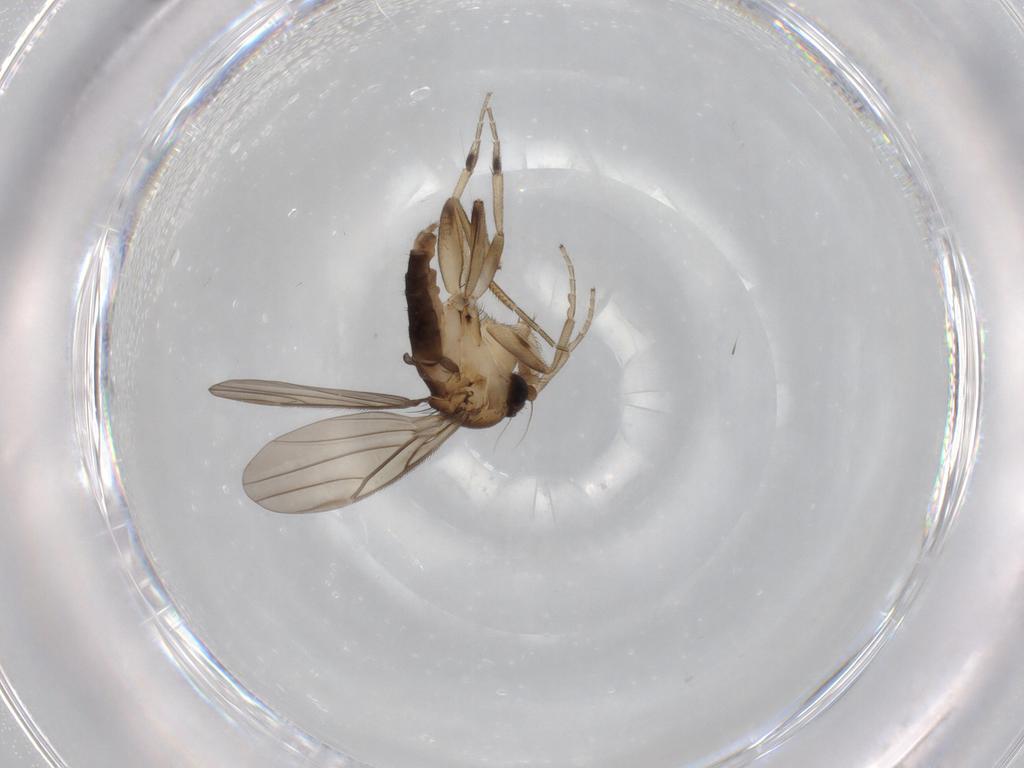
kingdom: Animalia
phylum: Arthropoda
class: Insecta
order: Diptera
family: Phoridae
